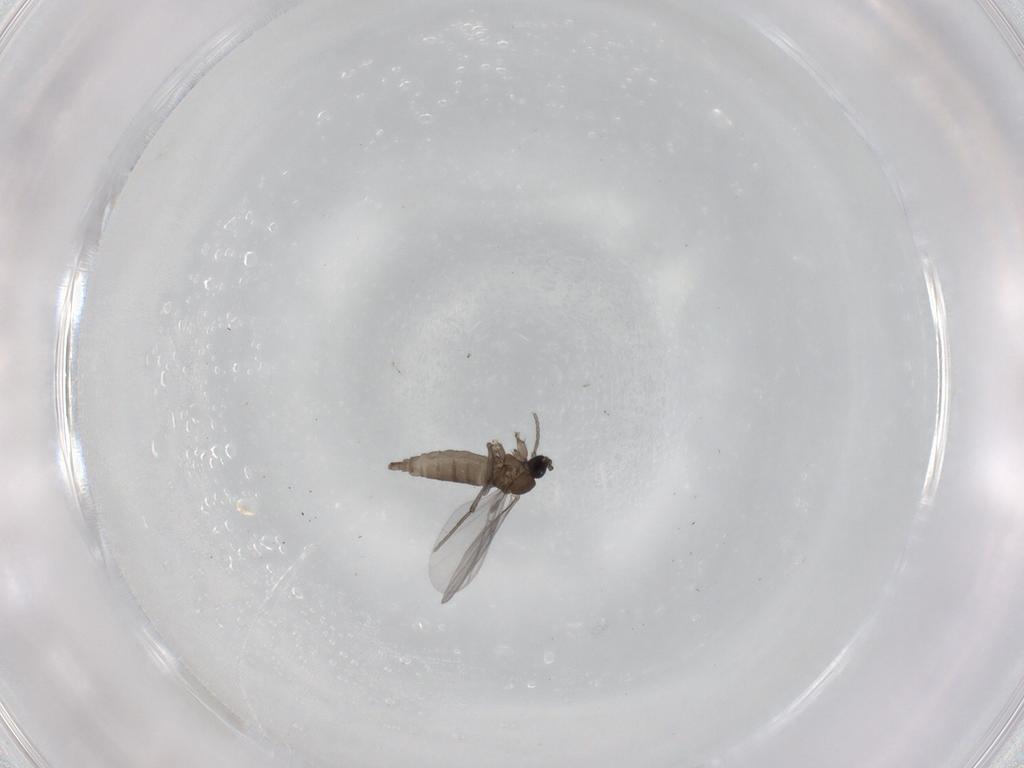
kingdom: Animalia
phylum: Arthropoda
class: Insecta
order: Diptera
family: Sciaridae
